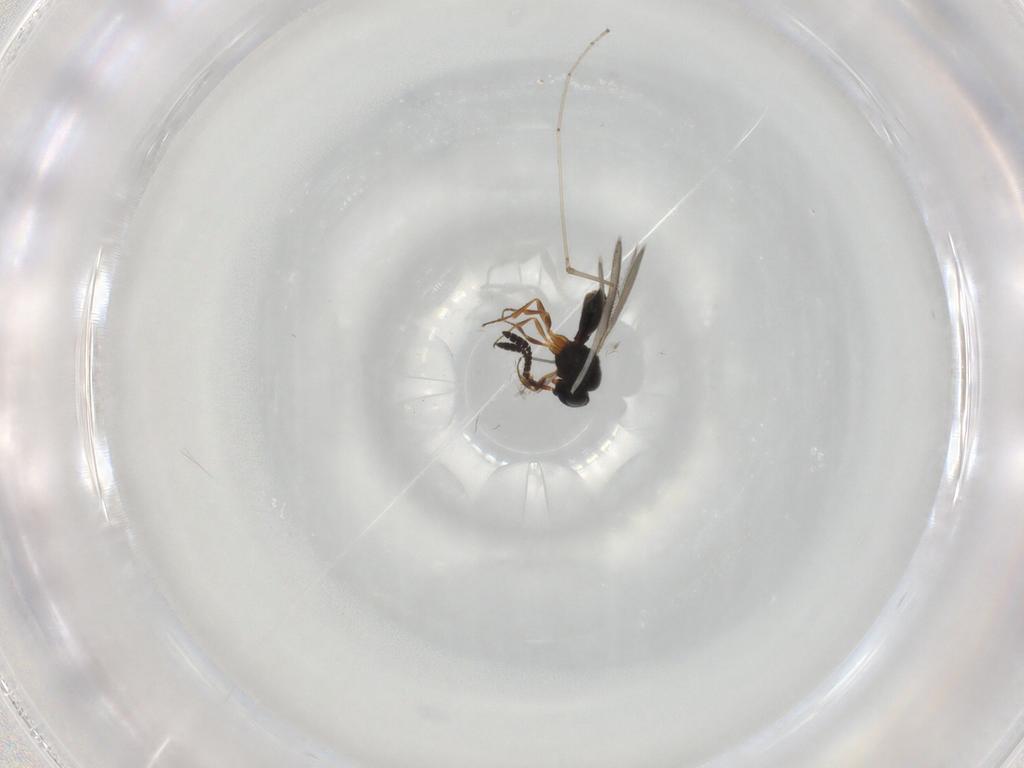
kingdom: Animalia
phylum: Arthropoda
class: Insecta
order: Hymenoptera
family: Scelionidae
